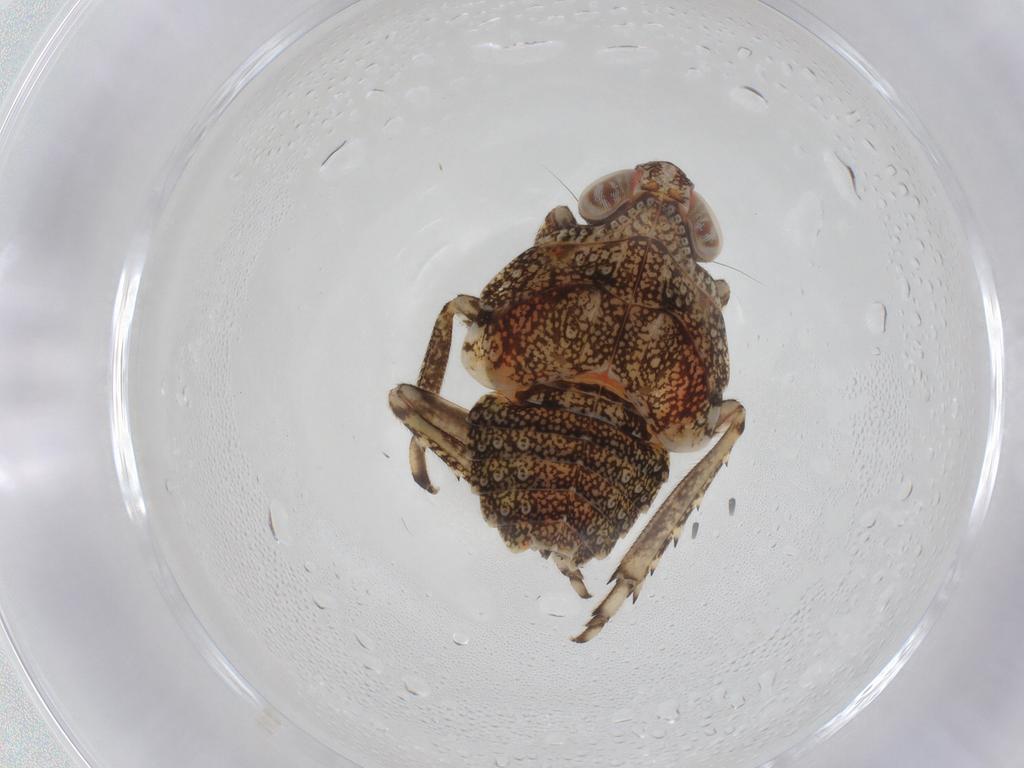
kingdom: Animalia
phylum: Arthropoda
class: Insecta
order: Hemiptera
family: Issidae
